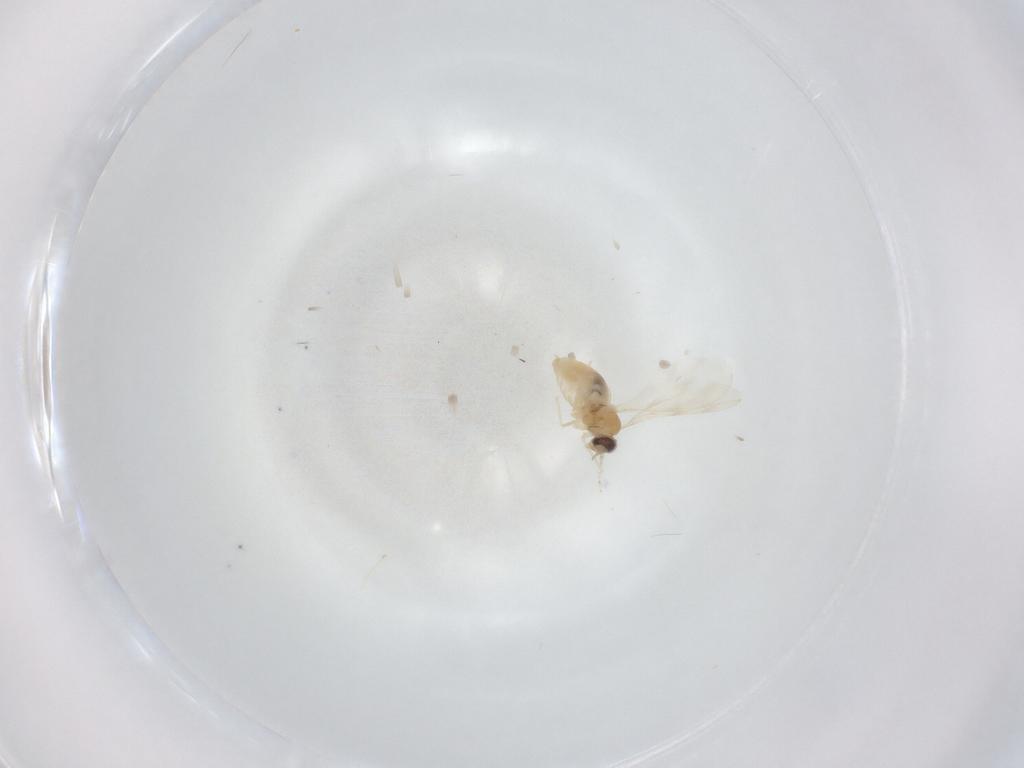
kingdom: Animalia
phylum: Arthropoda
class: Insecta
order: Diptera
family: Cecidomyiidae
